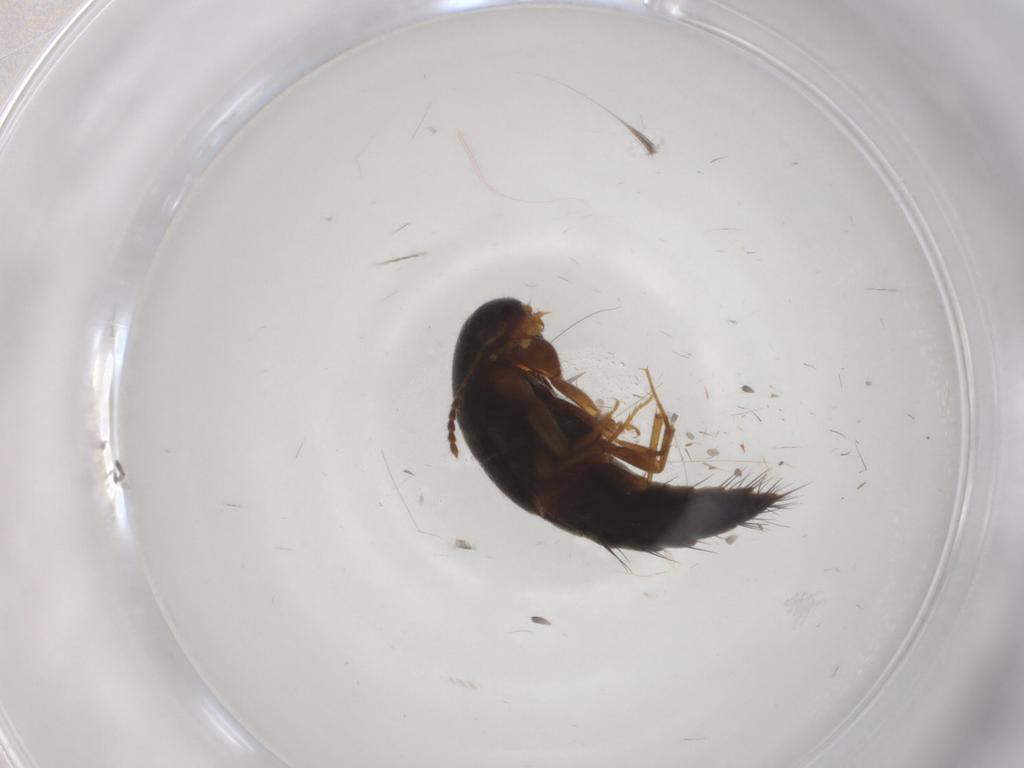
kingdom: Animalia
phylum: Arthropoda
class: Insecta
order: Coleoptera
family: Staphylinidae
